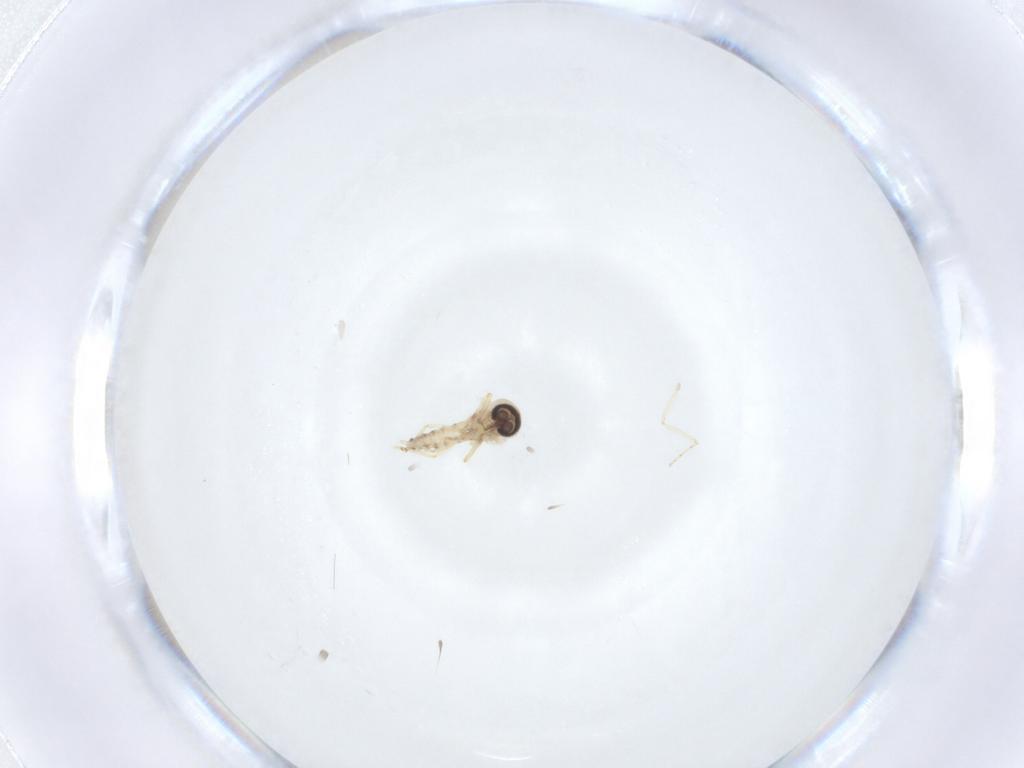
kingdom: Animalia
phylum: Arthropoda
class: Insecta
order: Diptera
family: Ceratopogonidae
